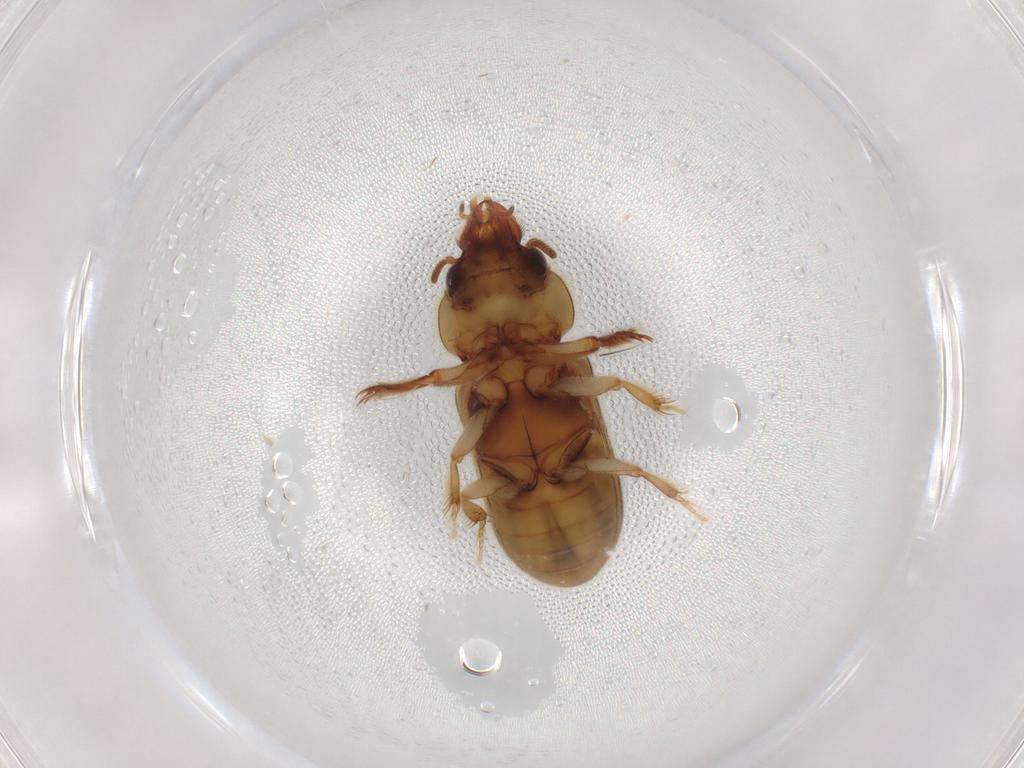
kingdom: Animalia
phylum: Arthropoda
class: Insecta
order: Coleoptera
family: Heteroceridae
